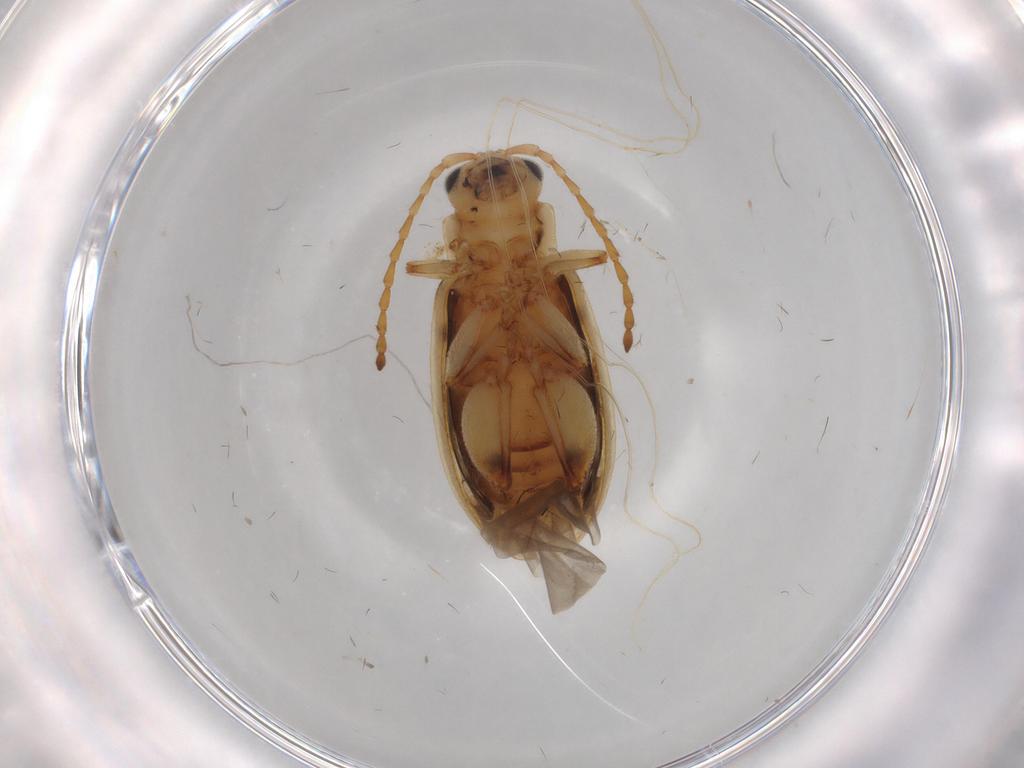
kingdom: Animalia
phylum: Arthropoda
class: Insecta
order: Coleoptera
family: Chrysomelidae
